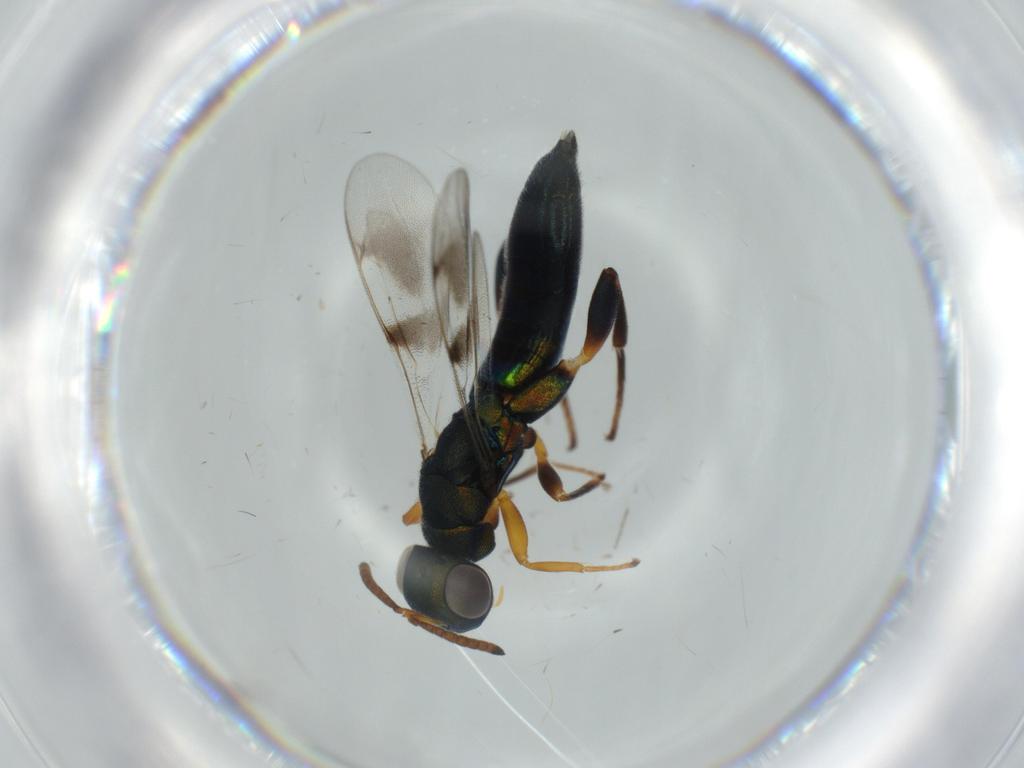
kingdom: Animalia
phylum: Arthropoda
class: Insecta
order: Hymenoptera
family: Cleonyminae
